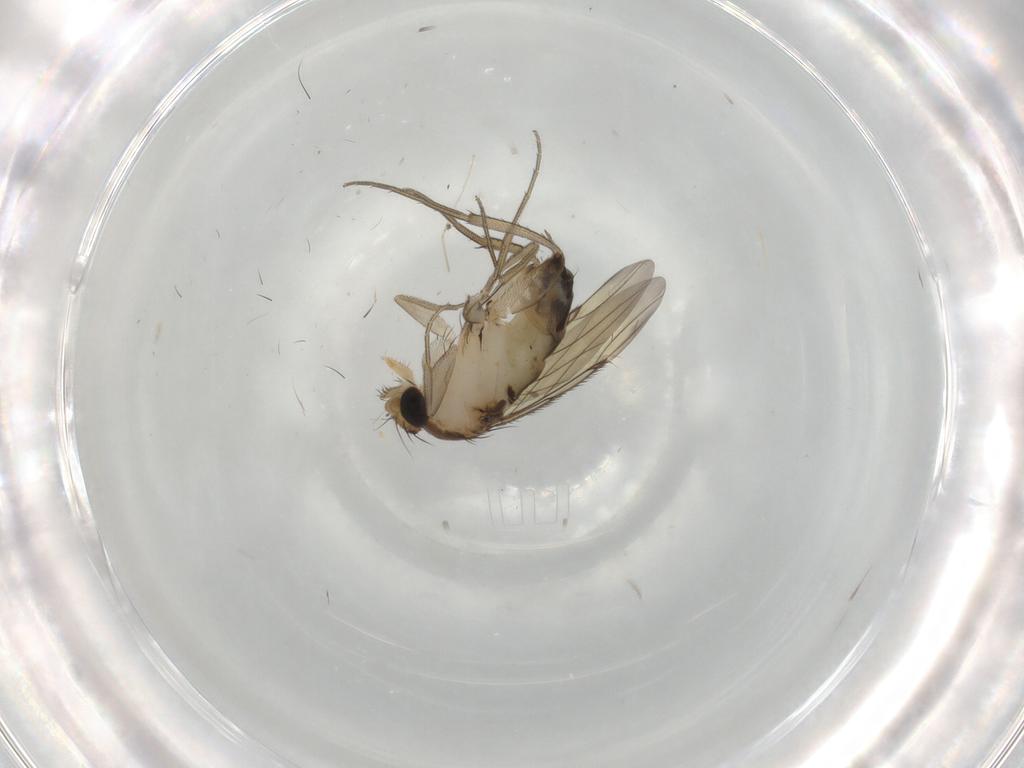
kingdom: Animalia
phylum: Arthropoda
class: Insecta
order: Diptera
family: Phoridae
